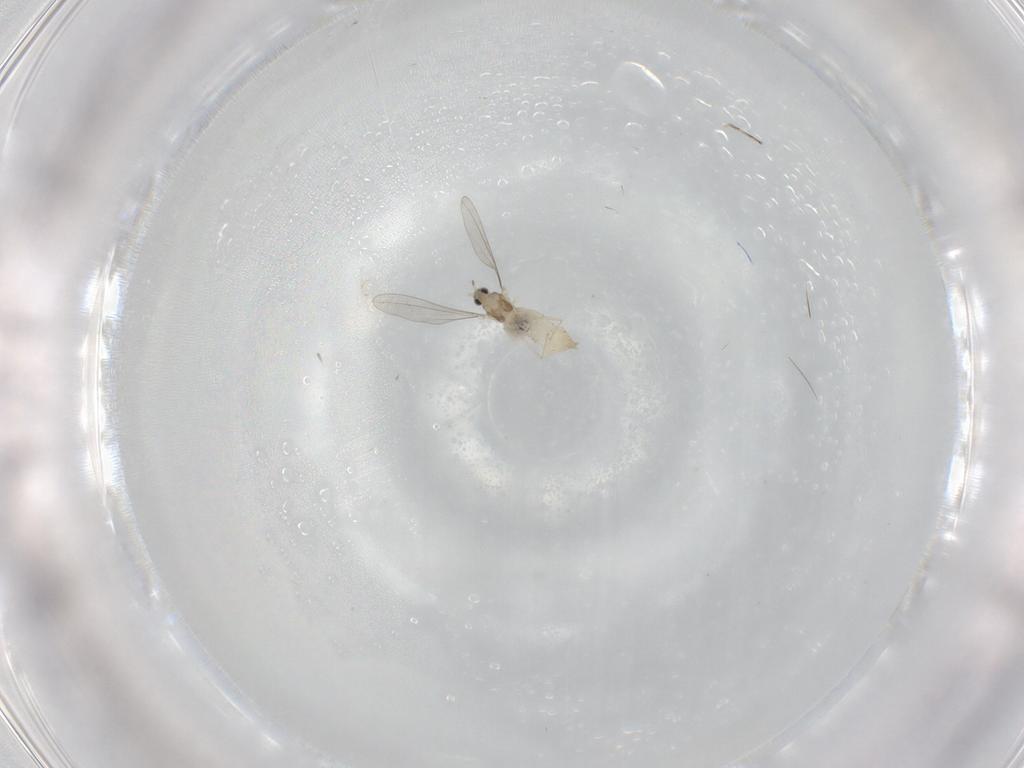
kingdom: Animalia
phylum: Arthropoda
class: Insecta
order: Diptera
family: Cecidomyiidae
